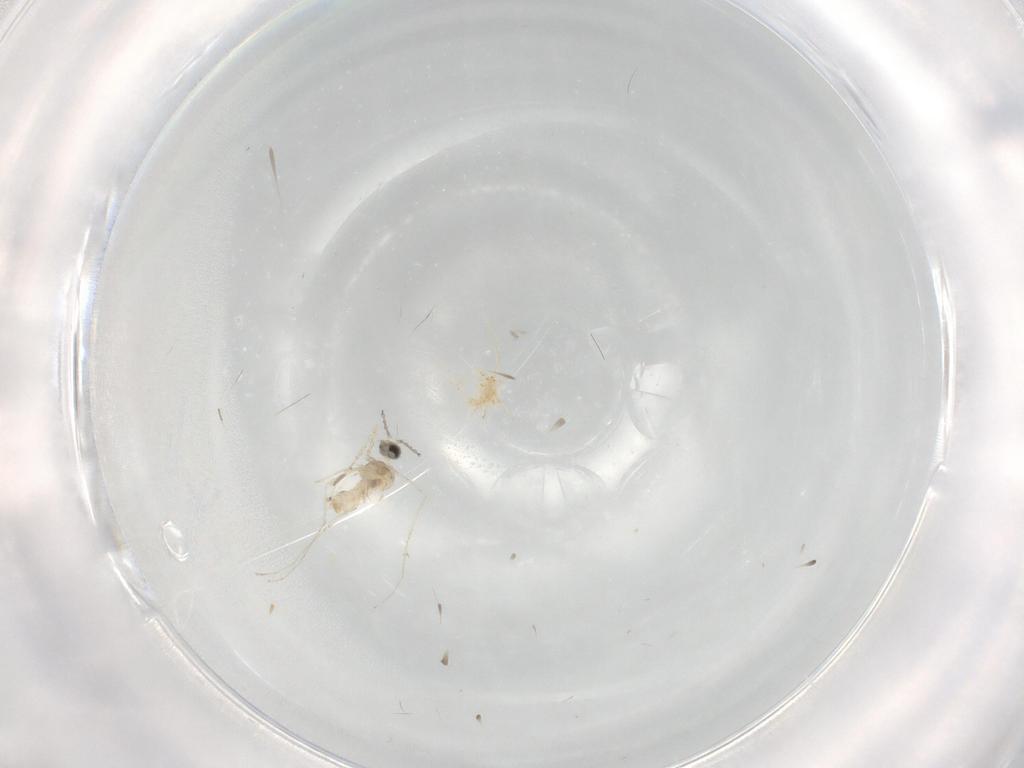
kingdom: Animalia
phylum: Arthropoda
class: Insecta
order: Diptera
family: Cecidomyiidae
